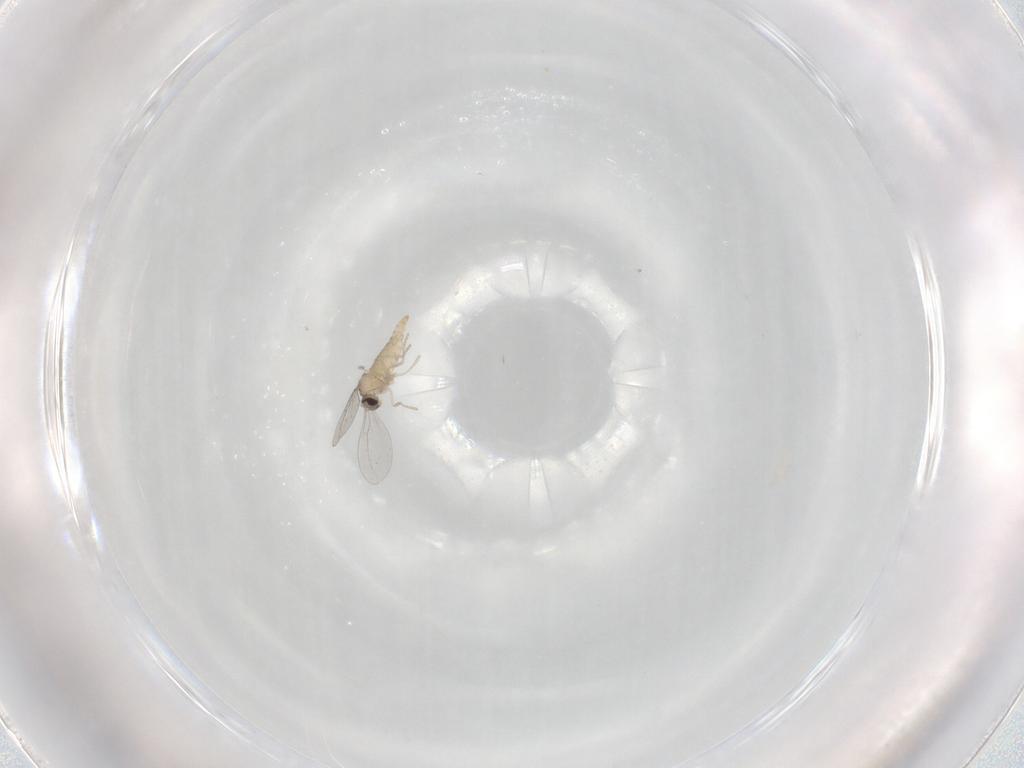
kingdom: Animalia
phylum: Arthropoda
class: Insecta
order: Diptera
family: Cecidomyiidae
